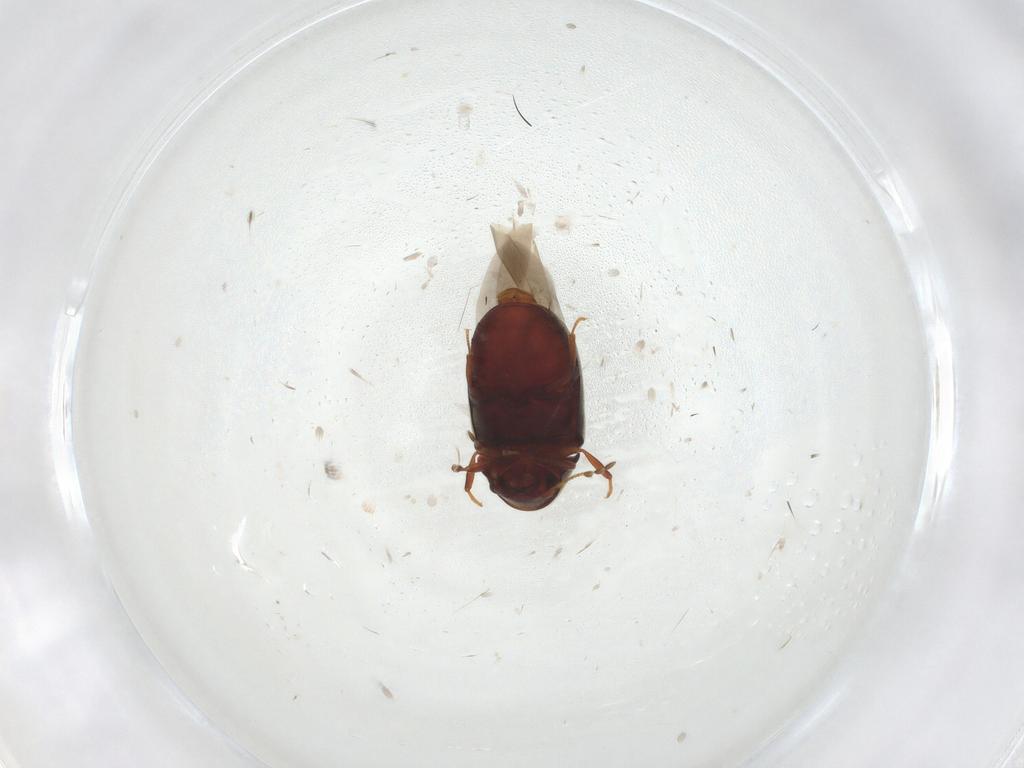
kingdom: Animalia
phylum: Arthropoda
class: Insecta
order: Coleoptera
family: Ptinidae
